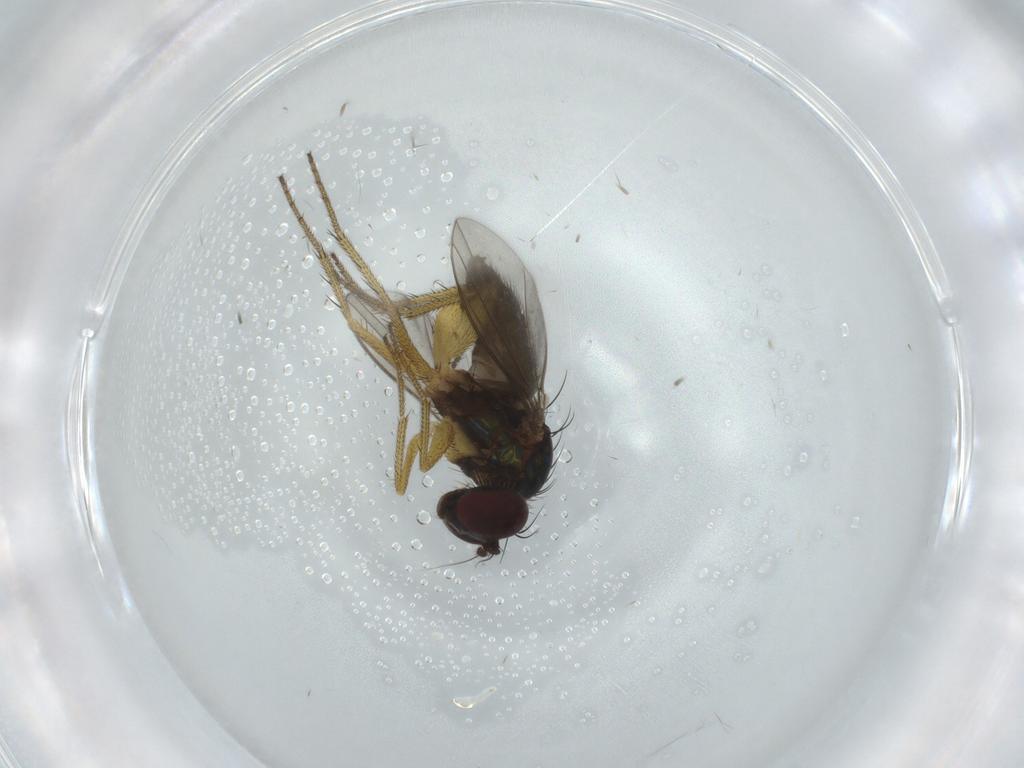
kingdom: Animalia
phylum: Arthropoda
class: Insecta
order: Diptera
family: Sciaridae
